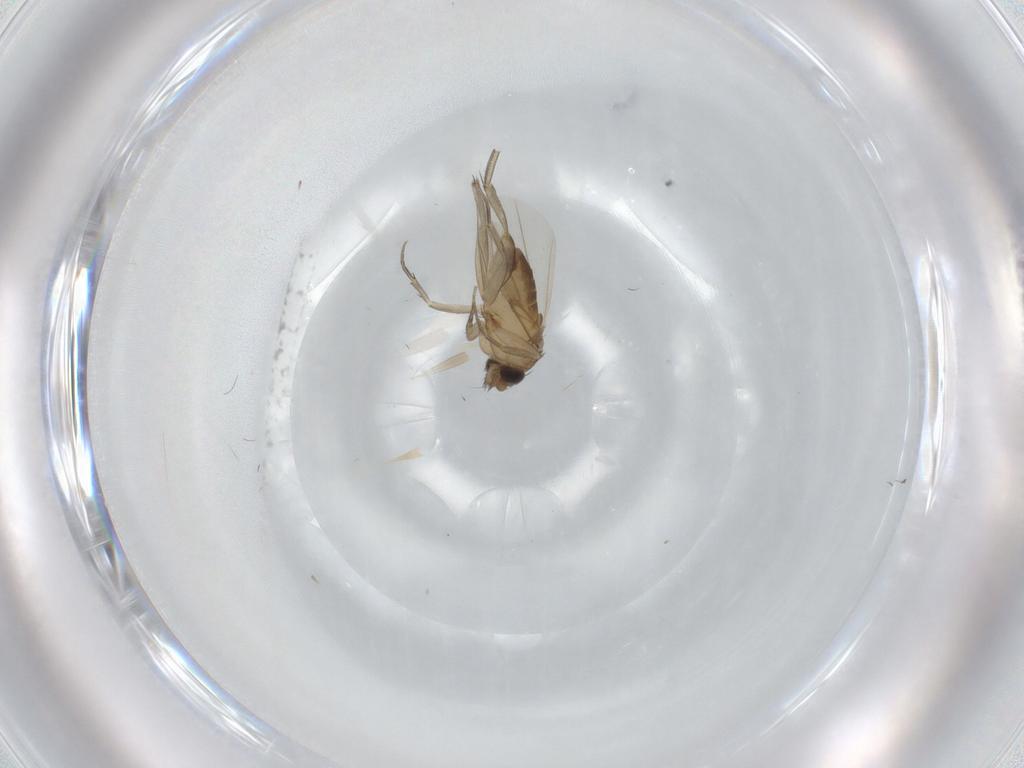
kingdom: Animalia
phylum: Arthropoda
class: Insecta
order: Diptera
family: Phoridae
